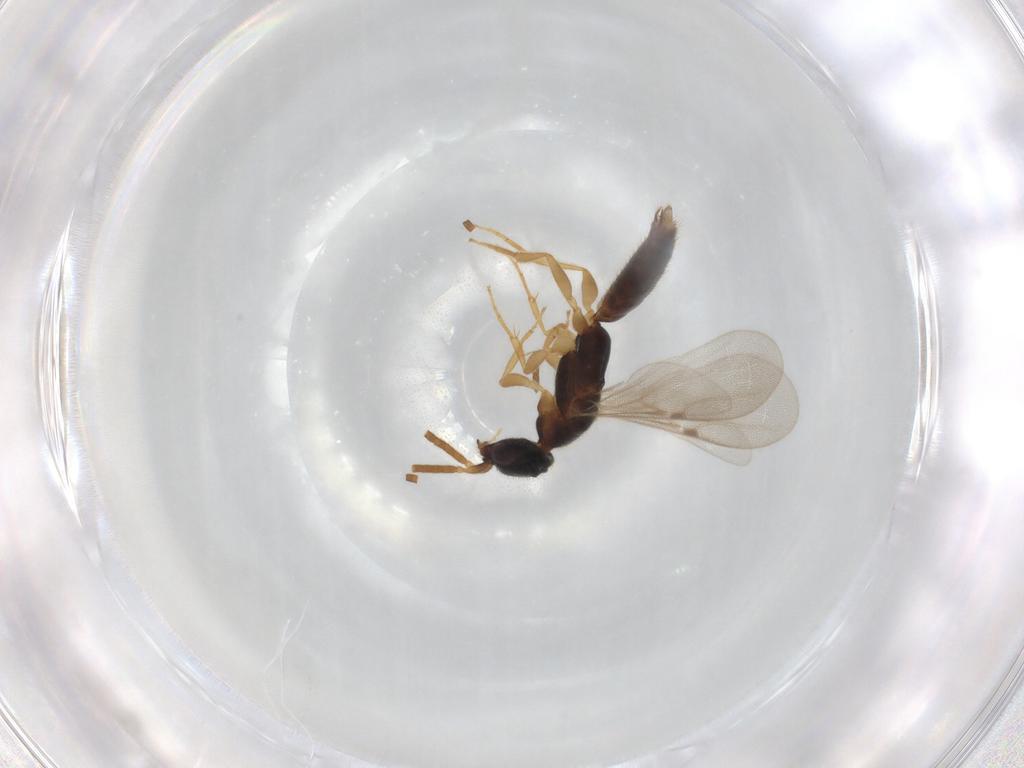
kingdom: Animalia
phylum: Arthropoda
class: Insecta
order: Hymenoptera
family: Bethylidae
